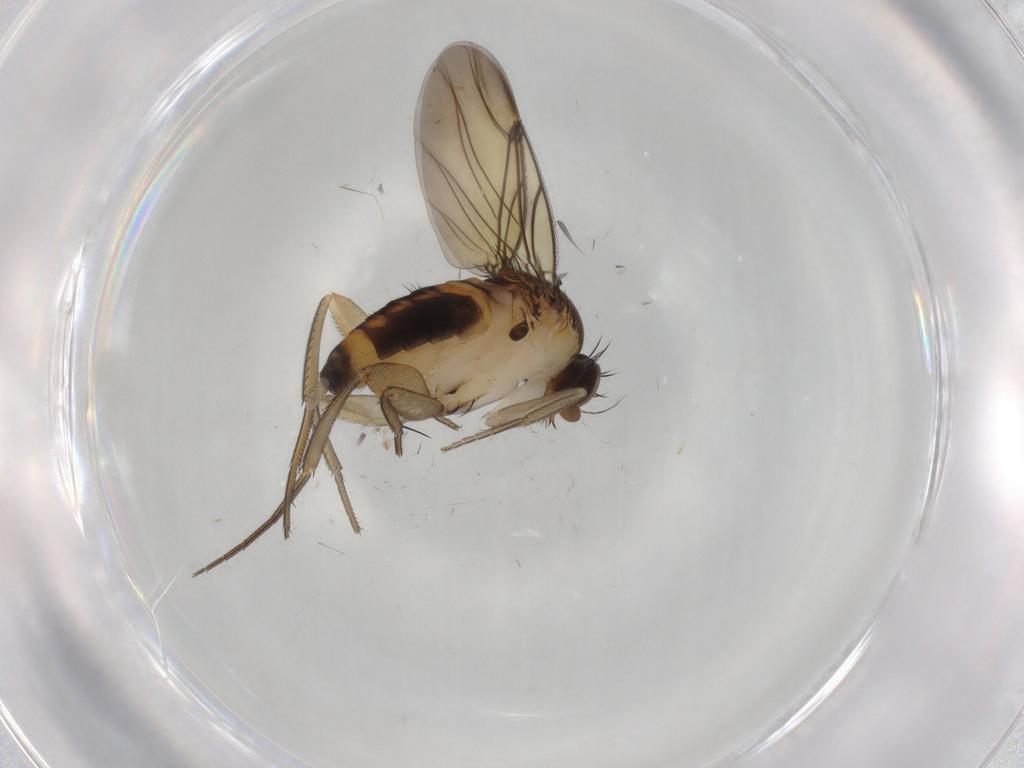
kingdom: Animalia
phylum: Arthropoda
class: Insecta
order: Diptera
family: Phoridae
